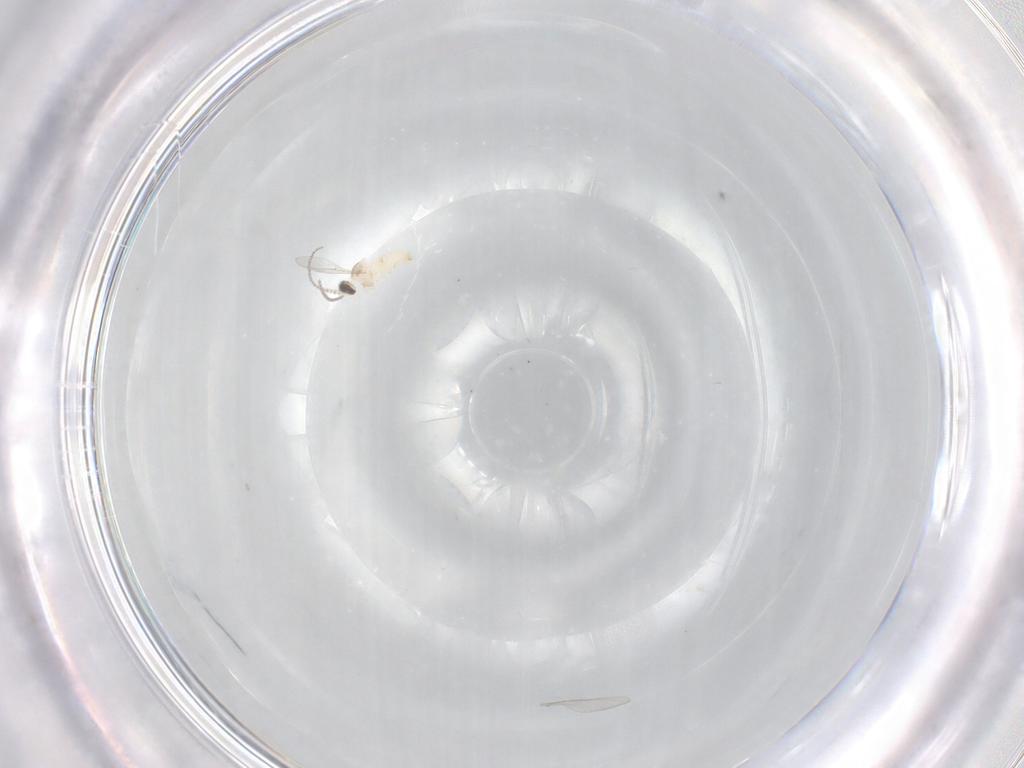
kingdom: Animalia
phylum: Arthropoda
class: Insecta
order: Diptera
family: Cecidomyiidae
